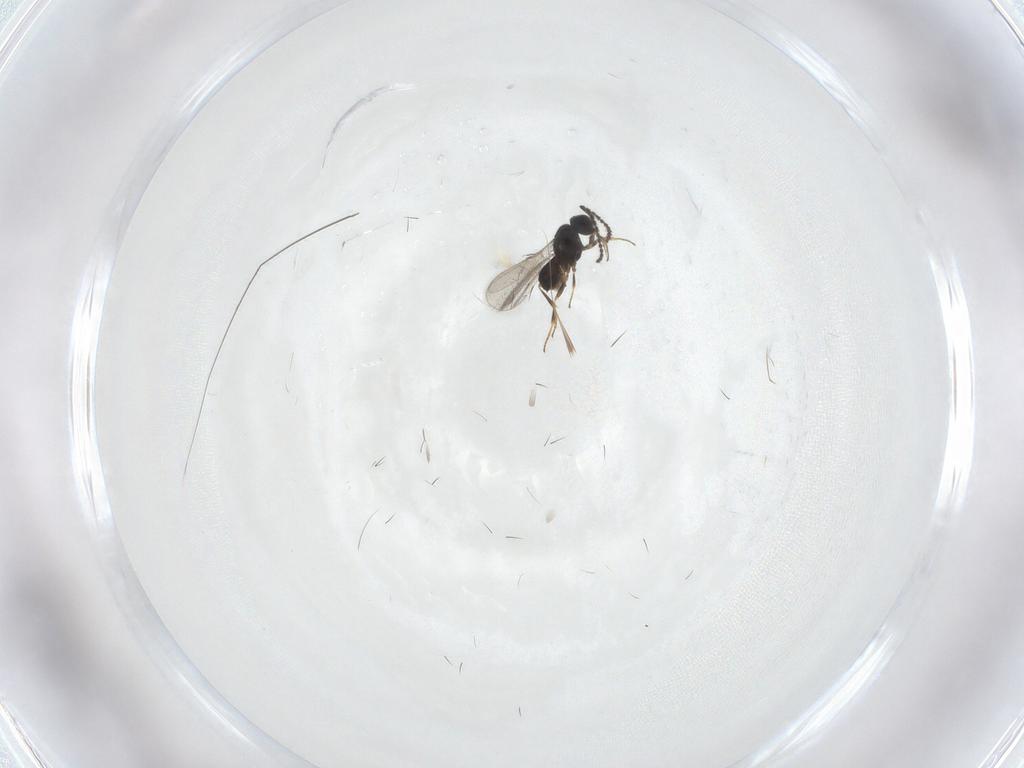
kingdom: Animalia
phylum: Arthropoda
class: Insecta
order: Hymenoptera
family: Scelionidae
